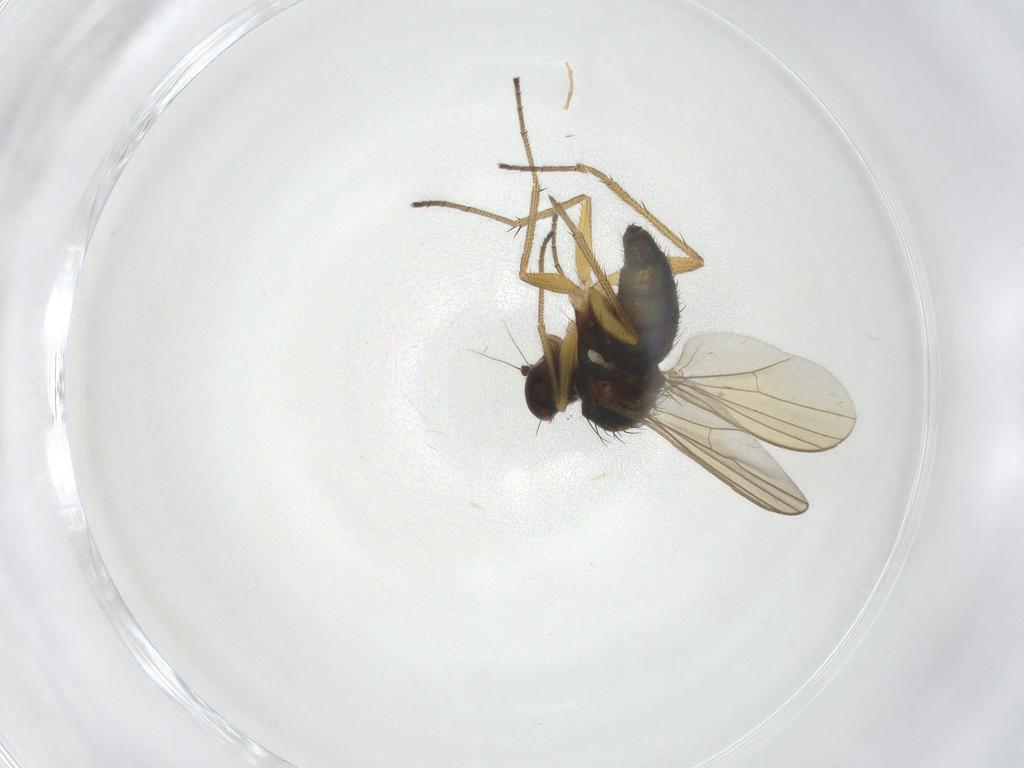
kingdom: Animalia
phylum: Arthropoda
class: Insecta
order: Diptera
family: Dolichopodidae
